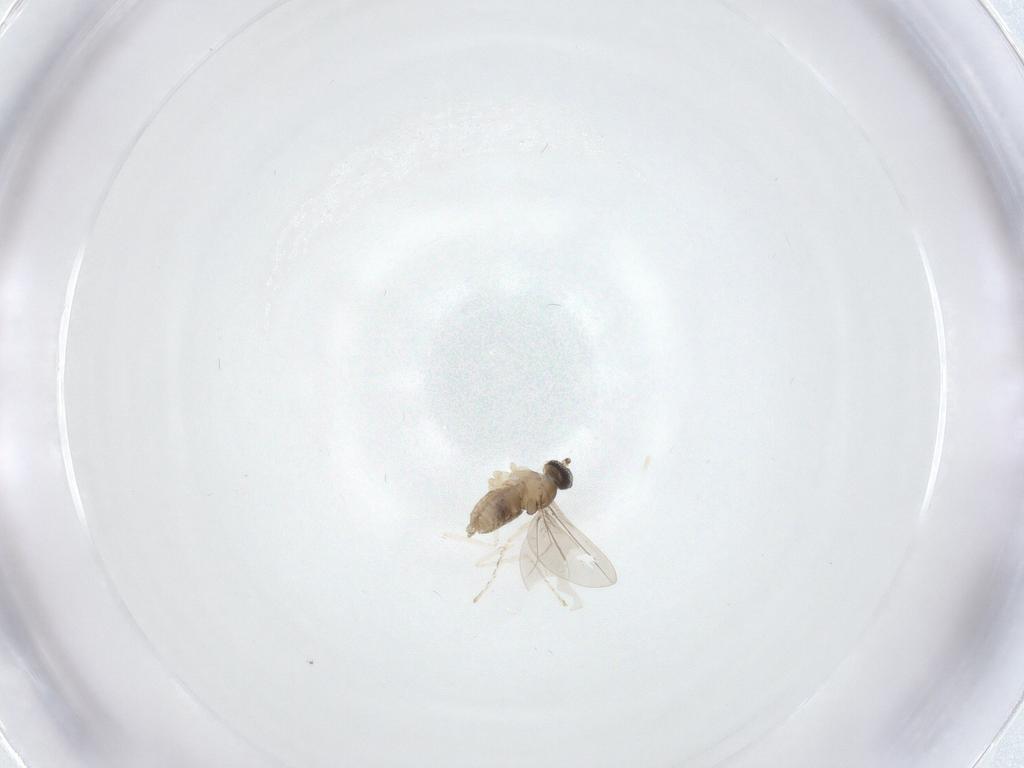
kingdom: Animalia
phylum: Arthropoda
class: Insecta
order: Diptera
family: Cecidomyiidae
